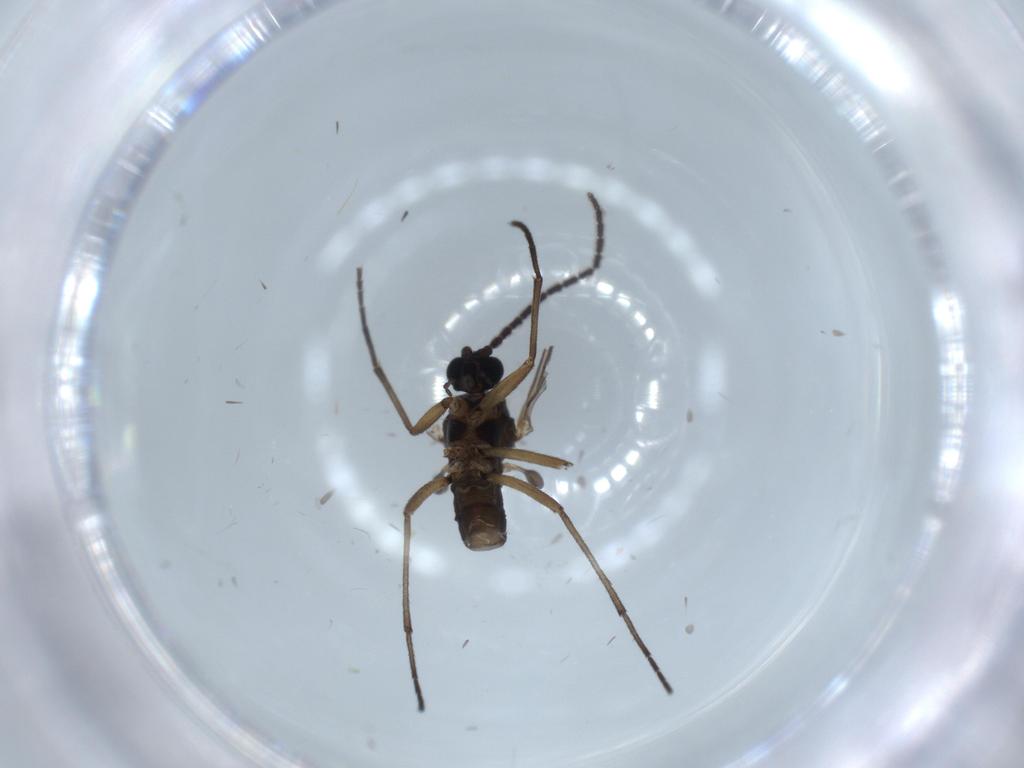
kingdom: Animalia
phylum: Arthropoda
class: Insecta
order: Diptera
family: Sciaridae
